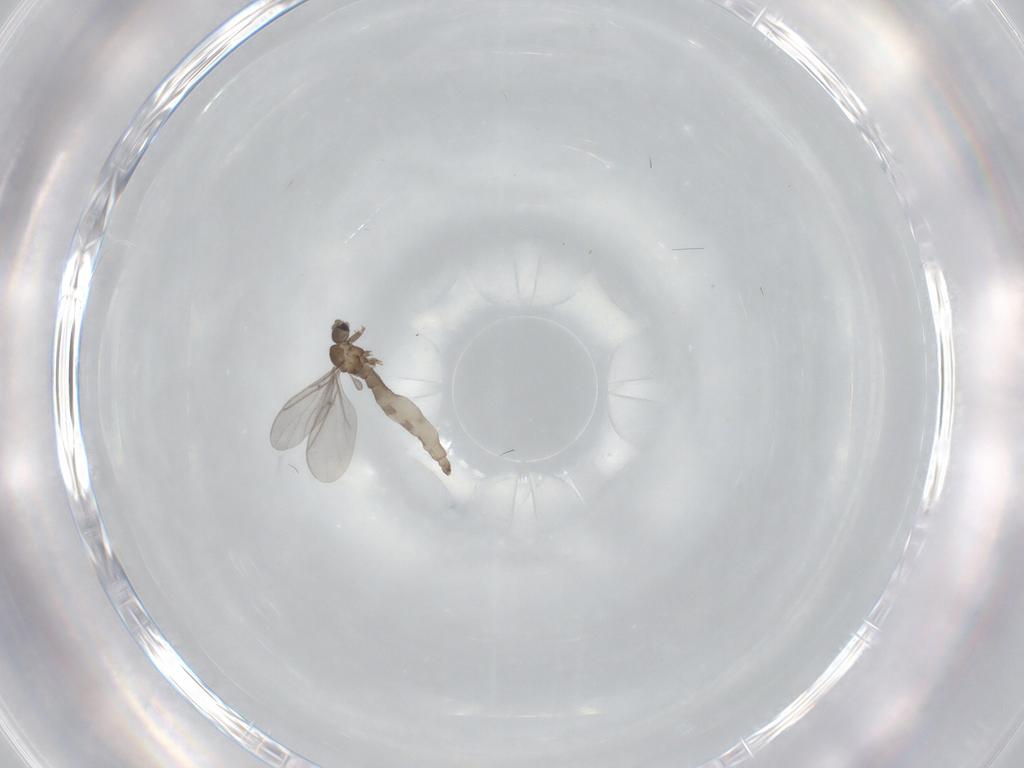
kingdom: Animalia
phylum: Arthropoda
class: Insecta
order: Diptera
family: Sciaridae
